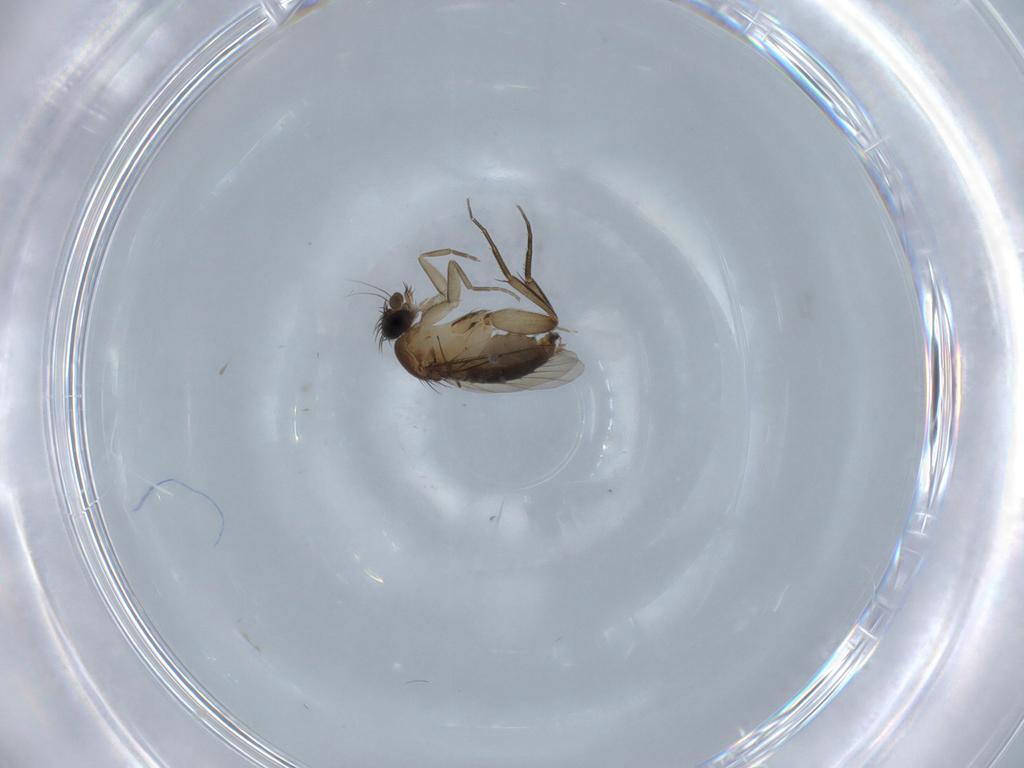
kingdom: Animalia
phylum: Arthropoda
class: Insecta
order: Diptera
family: Phoridae
